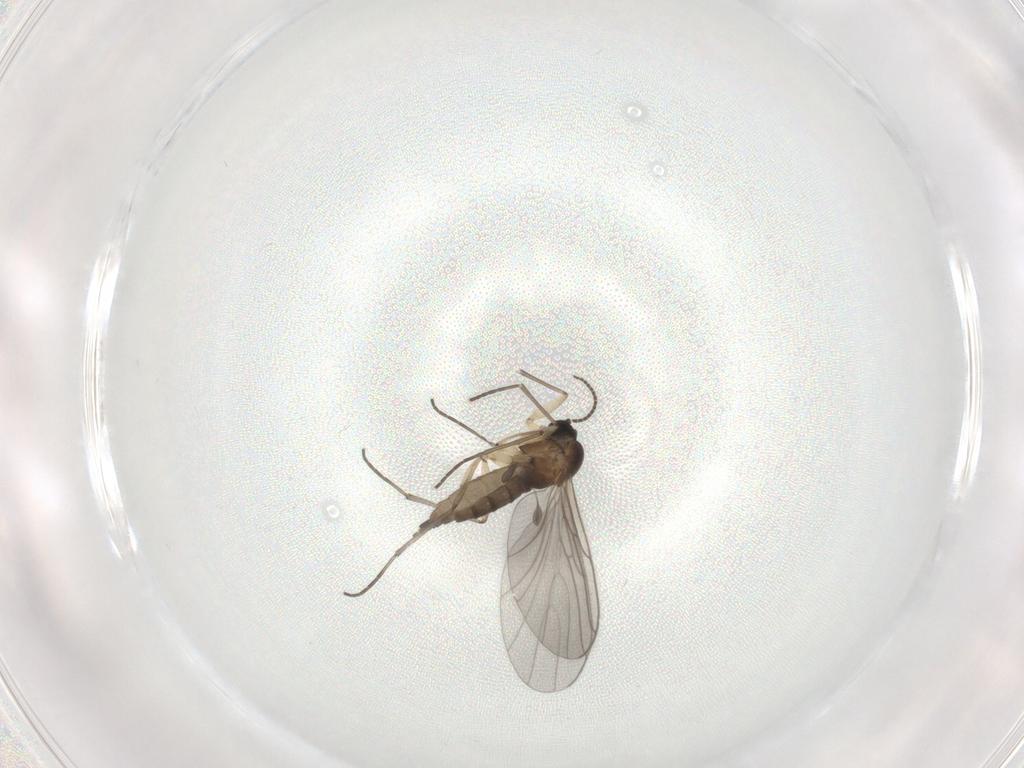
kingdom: Animalia
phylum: Arthropoda
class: Insecta
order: Diptera
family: Sciaridae
